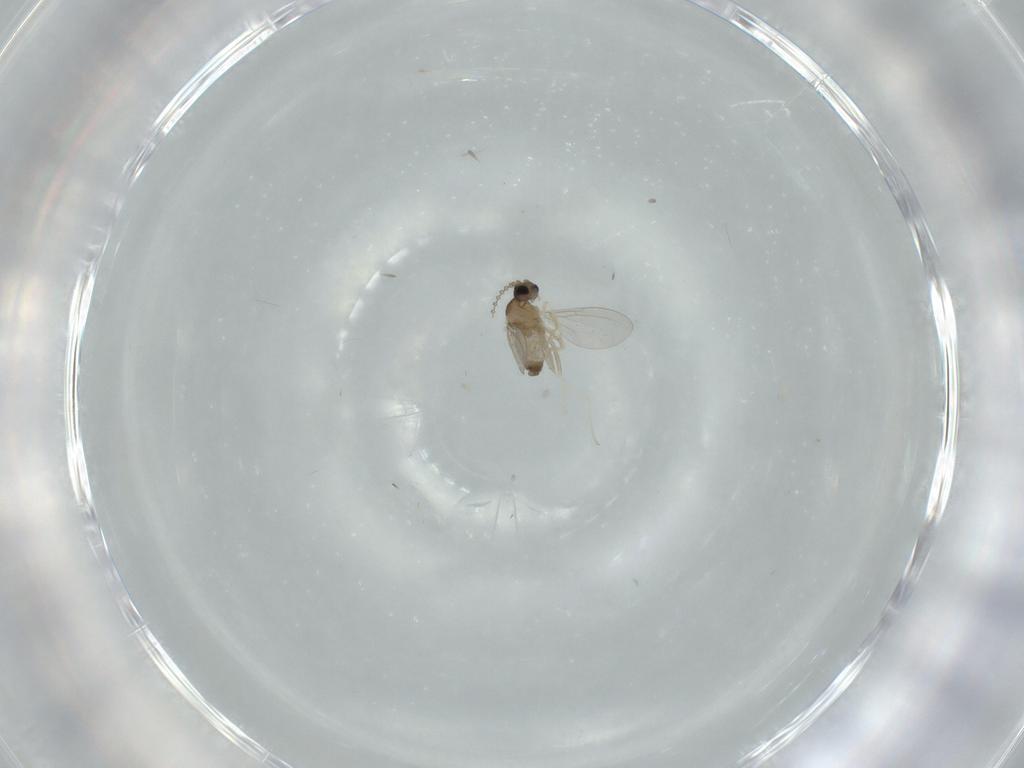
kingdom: Animalia
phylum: Arthropoda
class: Insecta
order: Diptera
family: Cecidomyiidae
